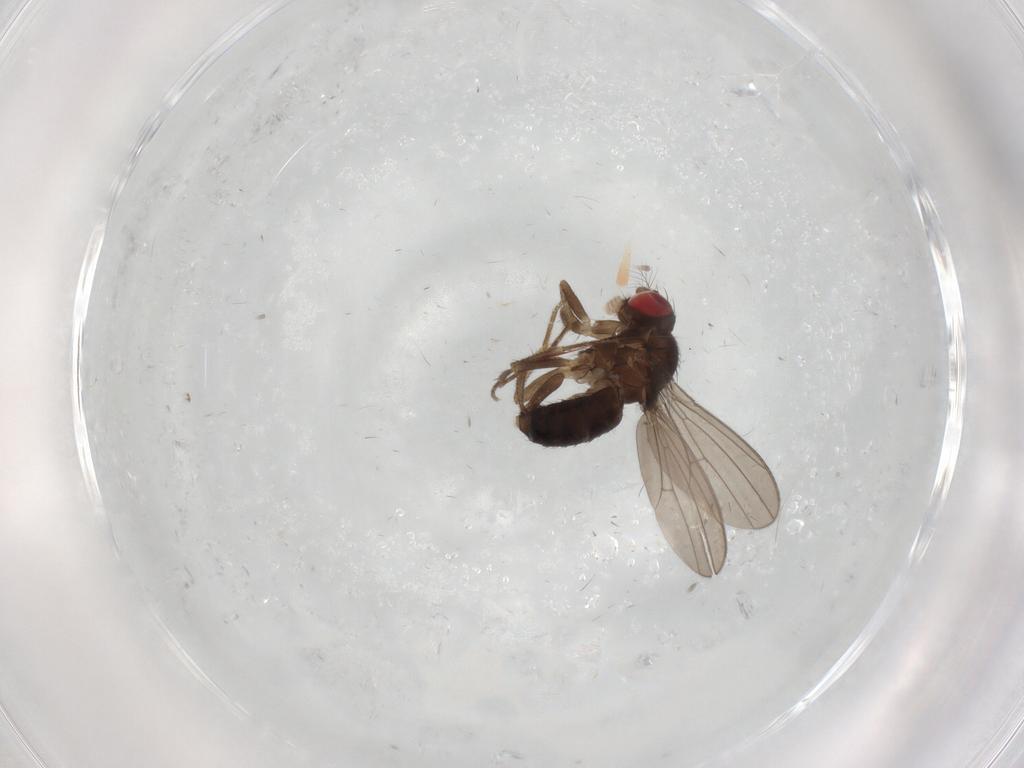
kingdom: Animalia
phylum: Arthropoda
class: Insecta
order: Diptera
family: Drosophilidae
